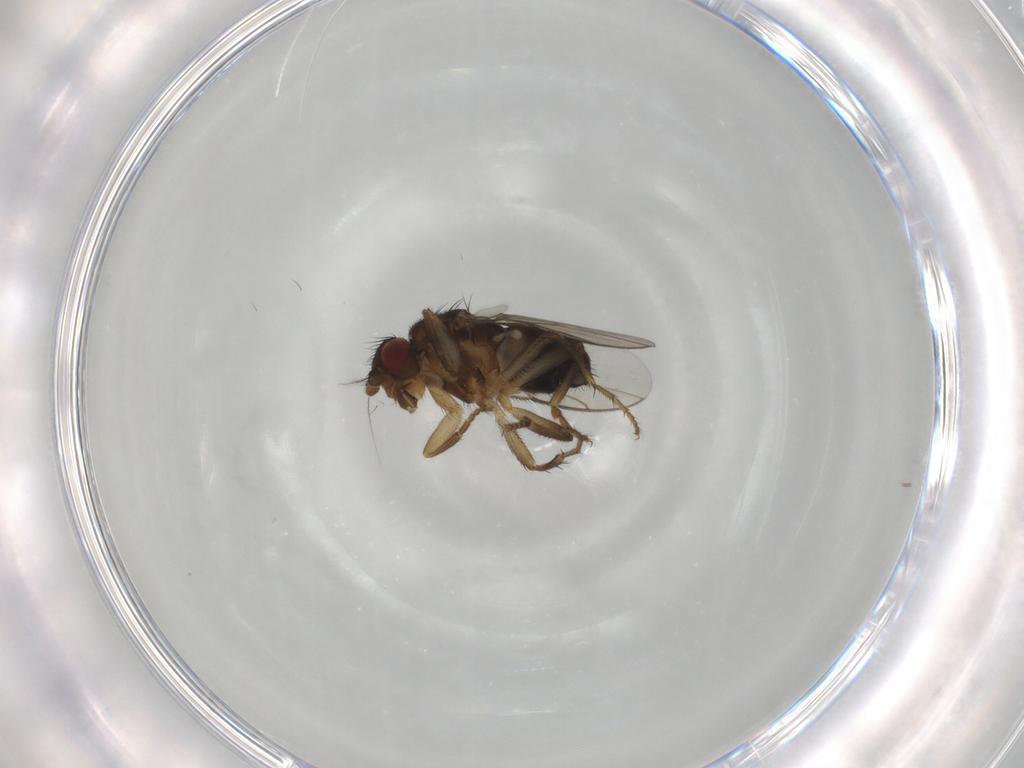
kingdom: Animalia
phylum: Arthropoda
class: Insecta
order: Diptera
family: Sphaeroceridae
